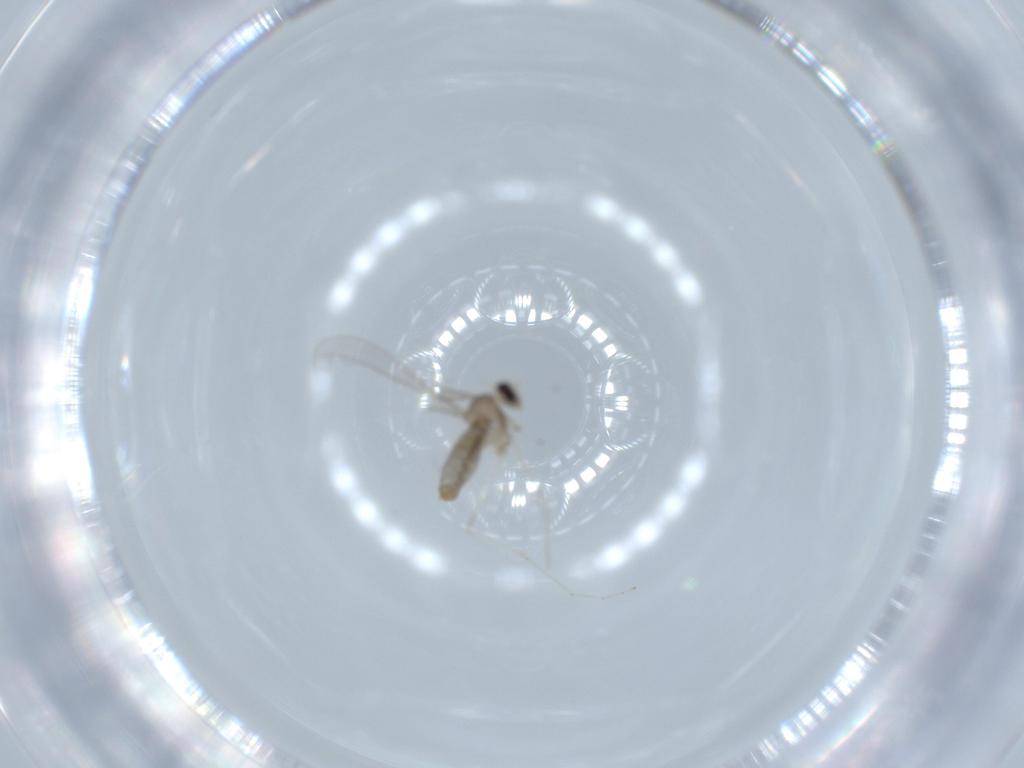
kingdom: Animalia
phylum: Arthropoda
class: Insecta
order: Diptera
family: Cecidomyiidae
